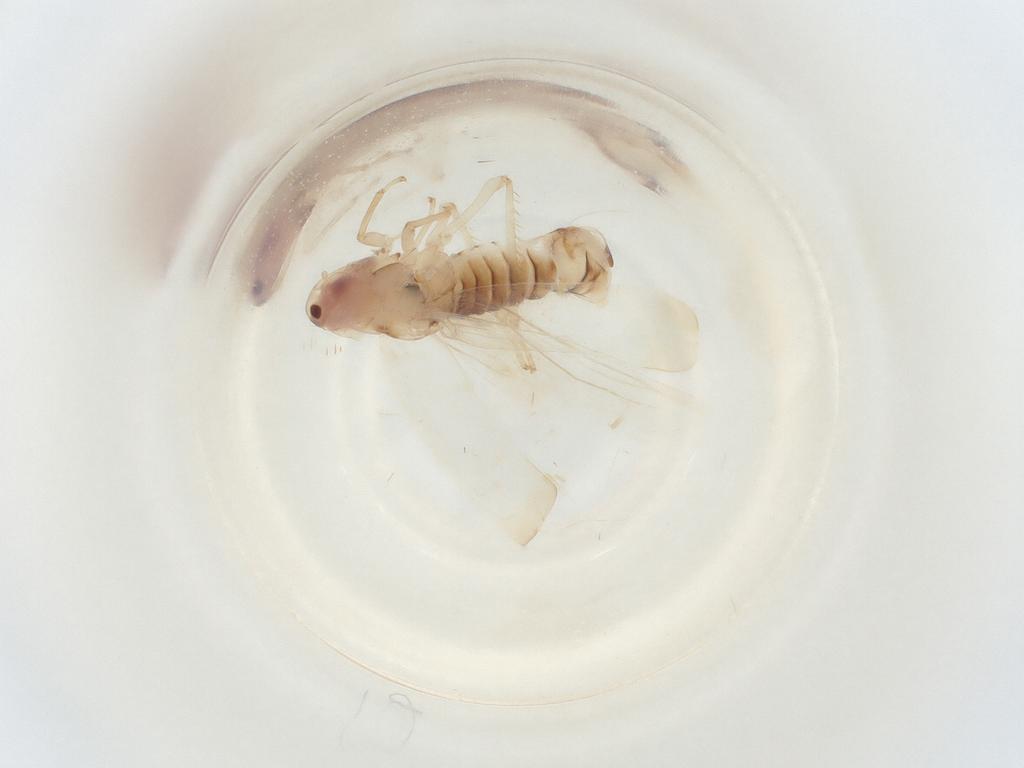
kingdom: Animalia
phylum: Arthropoda
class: Insecta
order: Hemiptera
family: Cicadellidae
